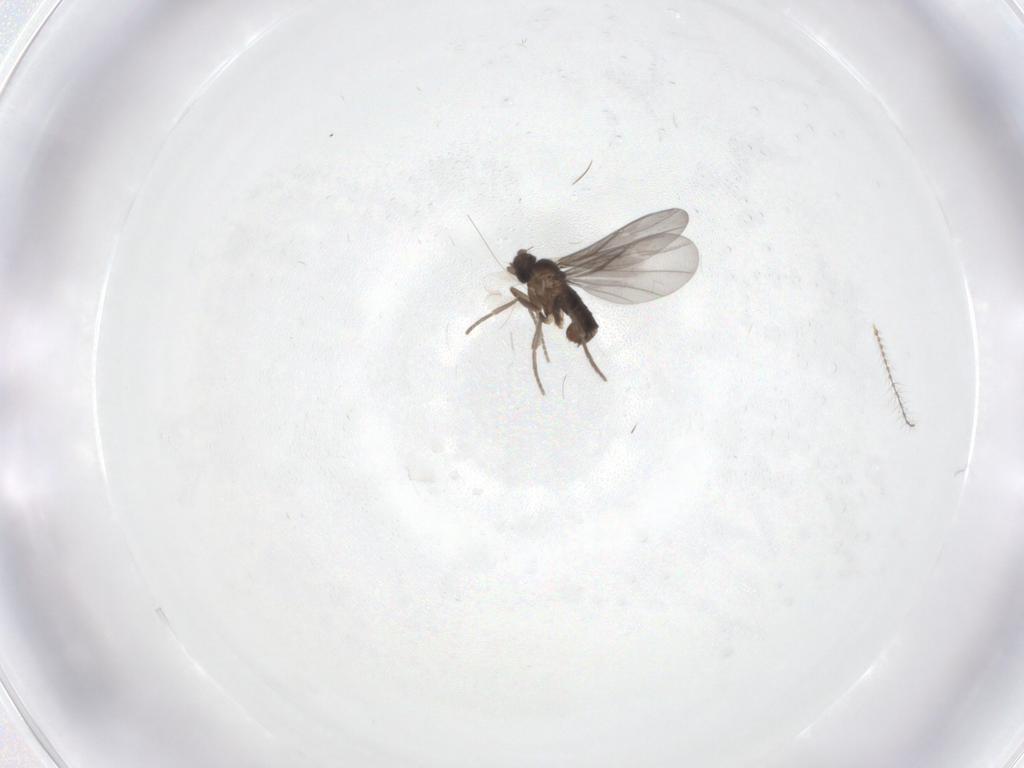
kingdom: Animalia
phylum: Arthropoda
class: Insecta
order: Diptera
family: Phoridae
